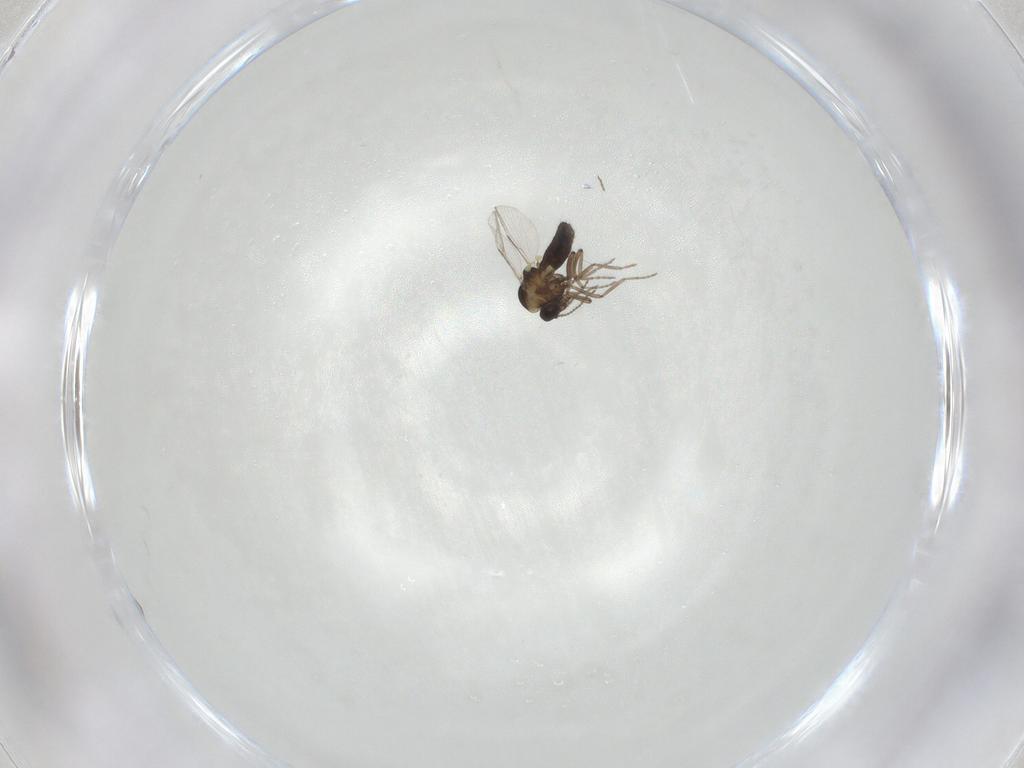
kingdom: Animalia
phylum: Arthropoda
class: Insecta
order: Diptera
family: Ceratopogonidae
